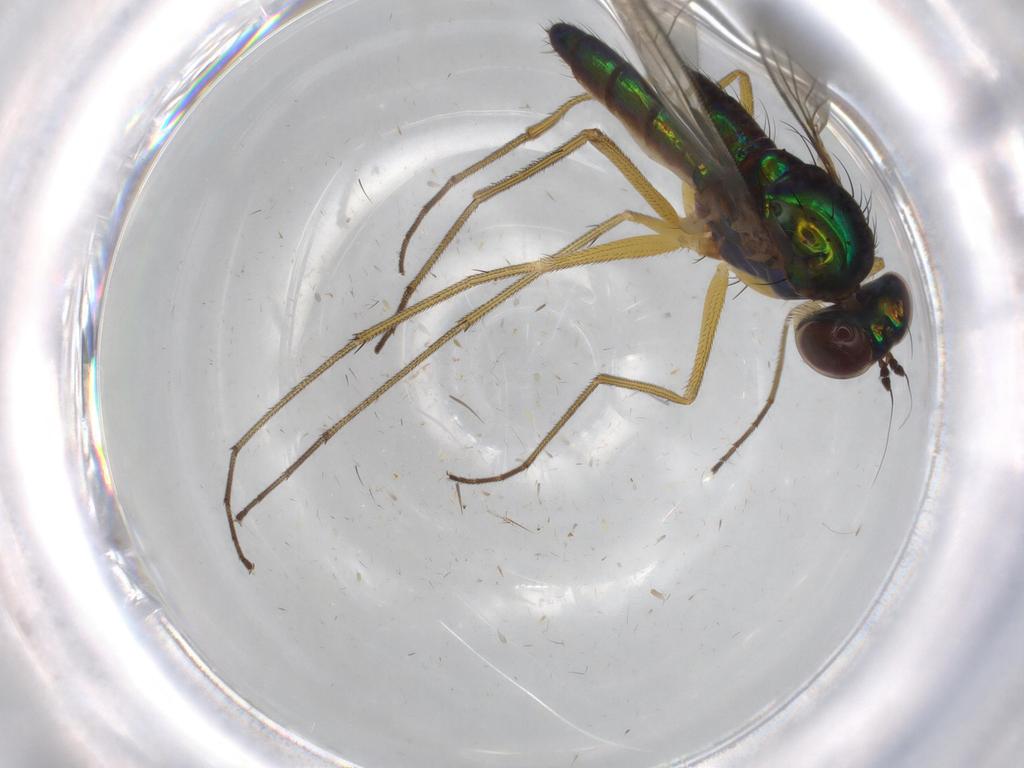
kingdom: Animalia
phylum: Arthropoda
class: Insecta
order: Diptera
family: Dolichopodidae
